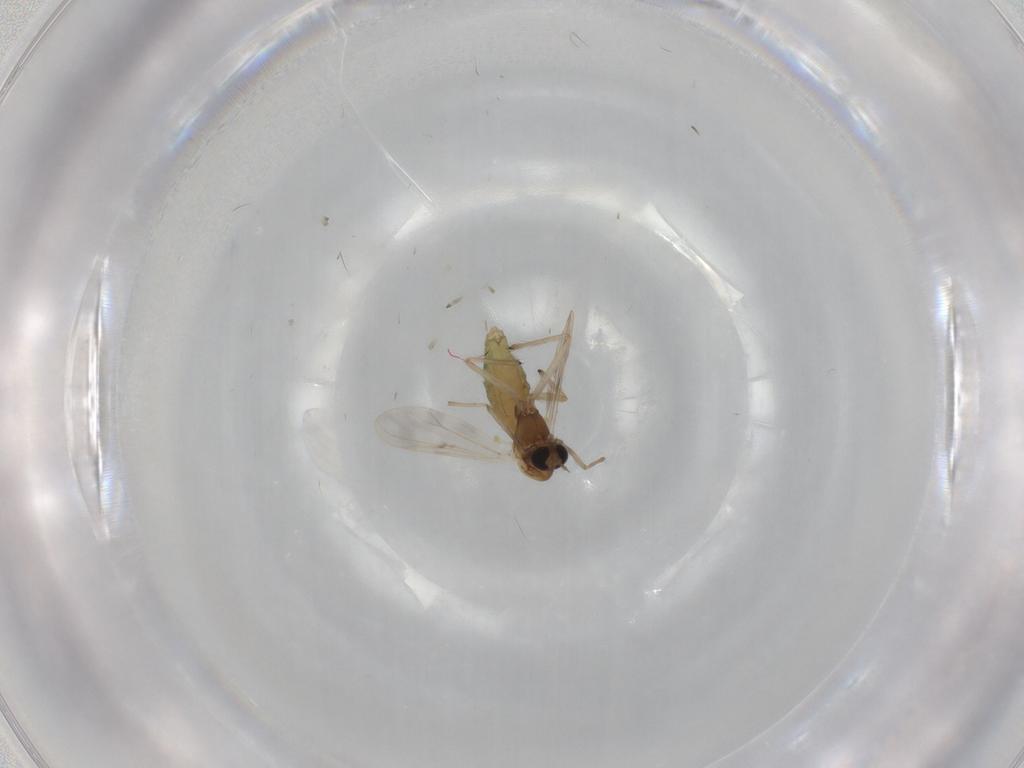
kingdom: Animalia
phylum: Arthropoda
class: Insecta
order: Diptera
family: Chironomidae
